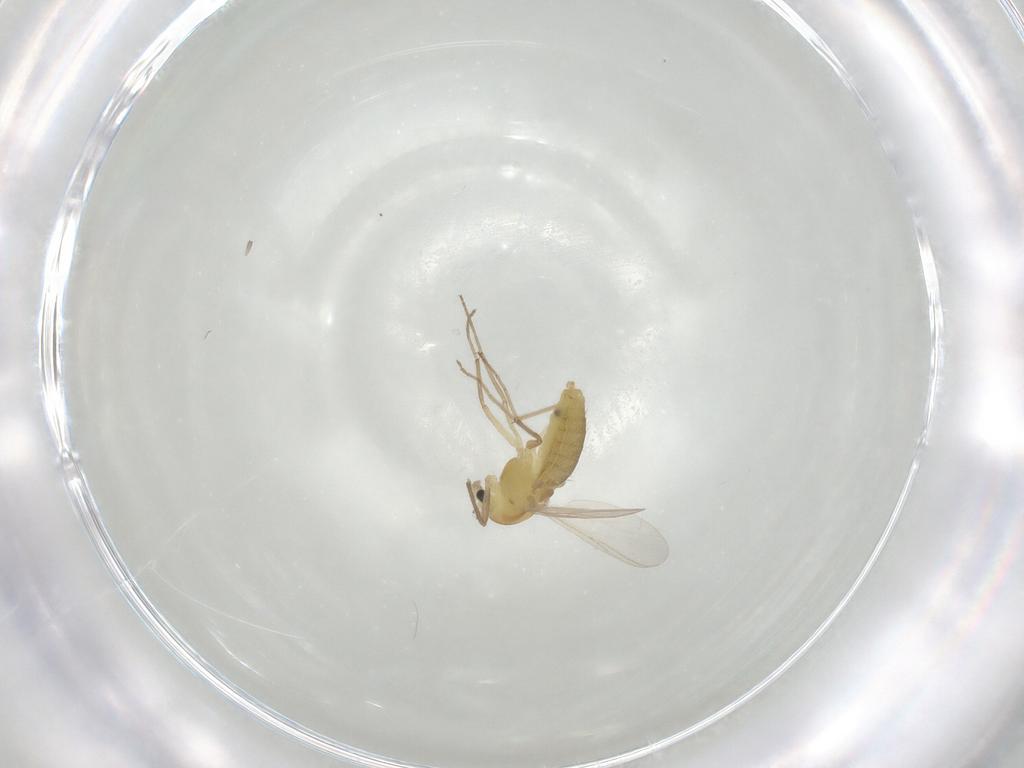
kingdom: Animalia
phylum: Arthropoda
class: Insecta
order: Diptera
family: Chironomidae
